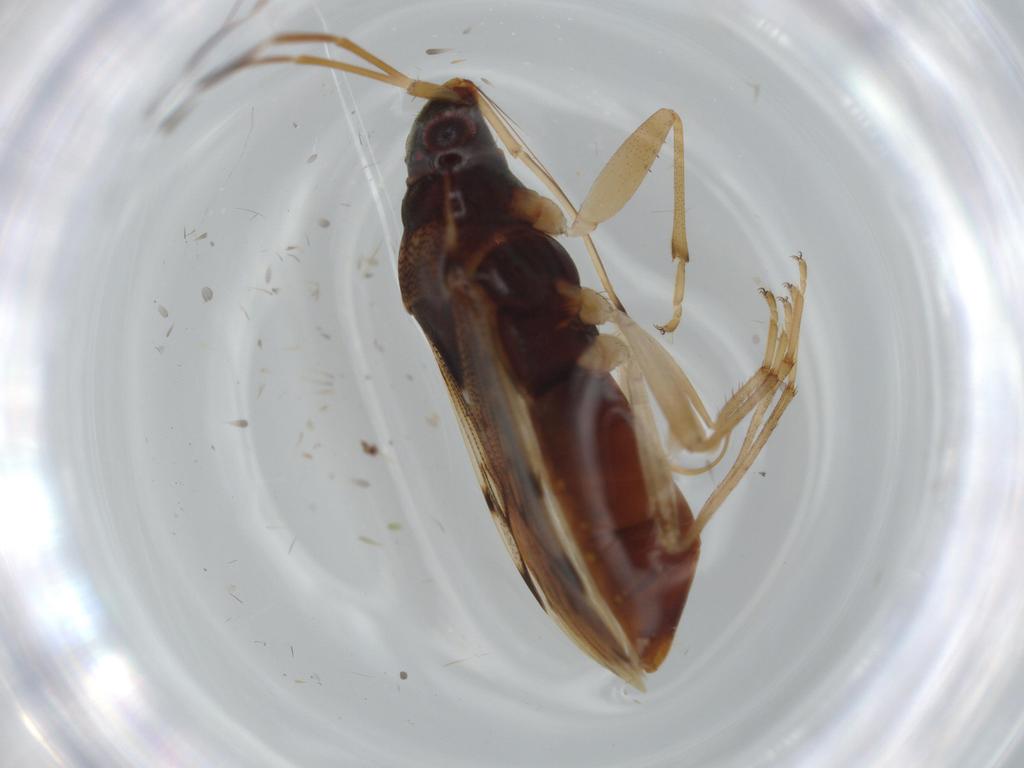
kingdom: Animalia
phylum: Arthropoda
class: Insecta
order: Hemiptera
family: Rhyparochromidae
